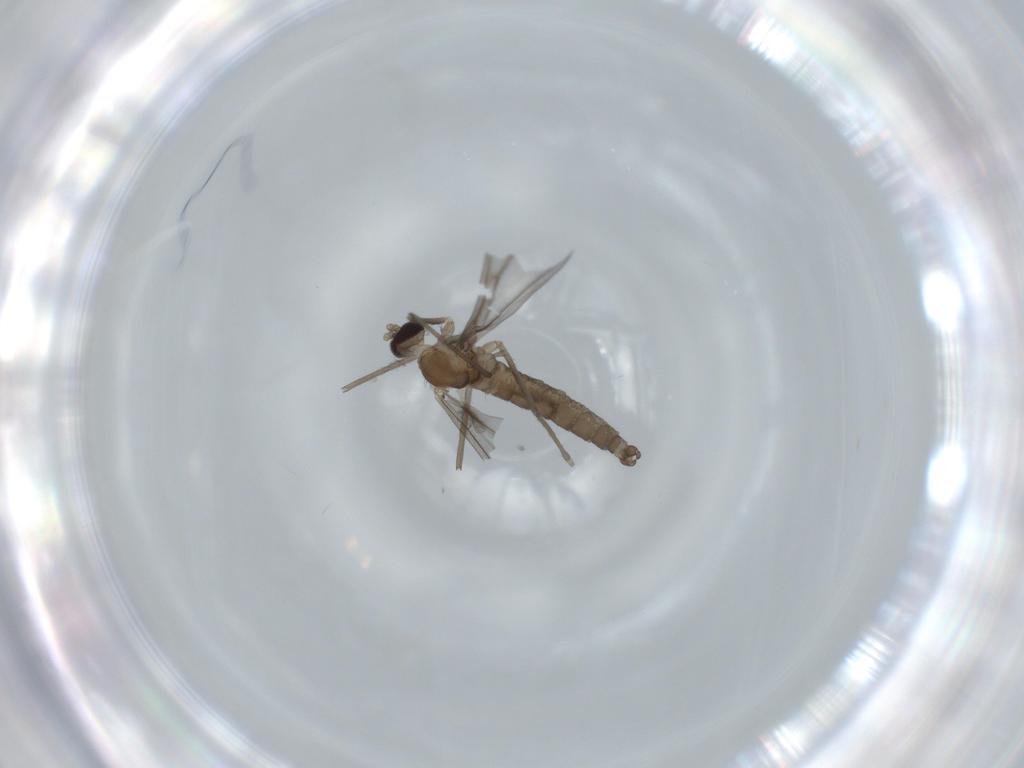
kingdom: Animalia
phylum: Arthropoda
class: Insecta
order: Diptera
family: Cecidomyiidae
